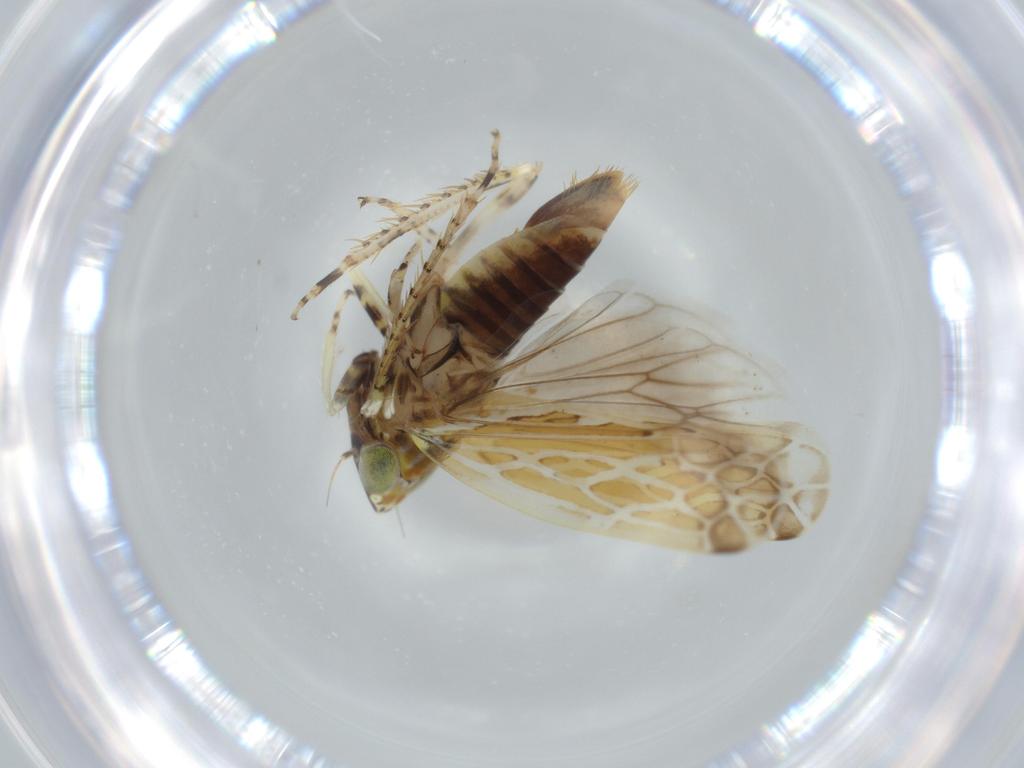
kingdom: Animalia
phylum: Arthropoda
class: Insecta
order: Hemiptera
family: Cicadellidae
